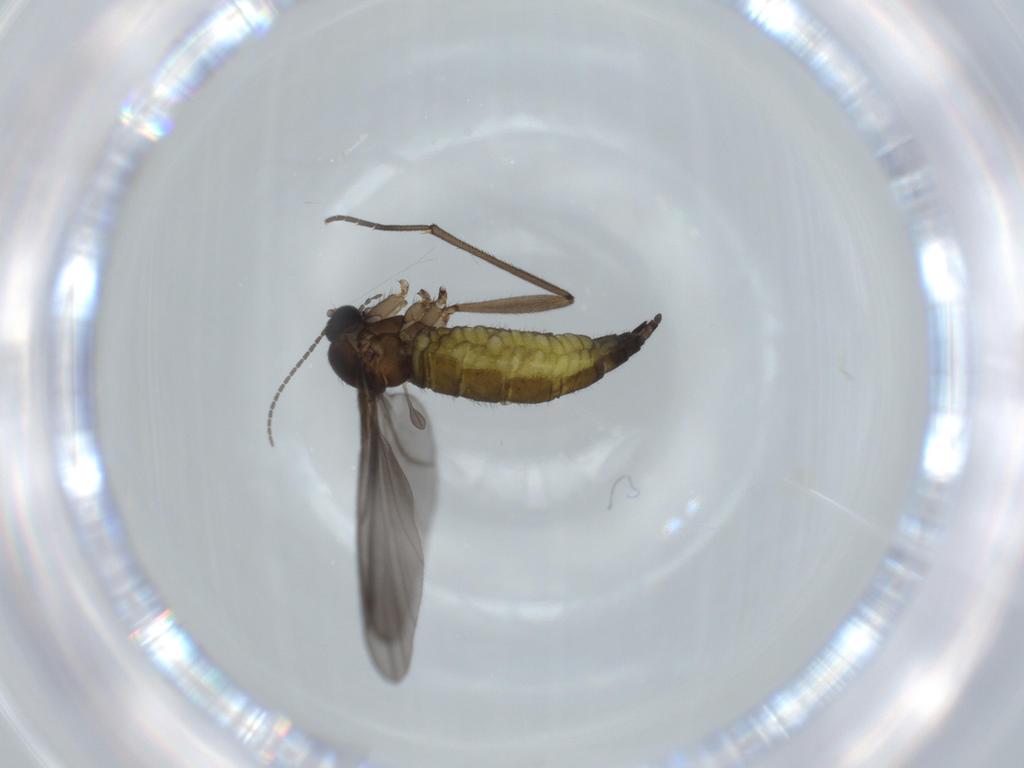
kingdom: Animalia
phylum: Arthropoda
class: Insecta
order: Diptera
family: Sciaridae
